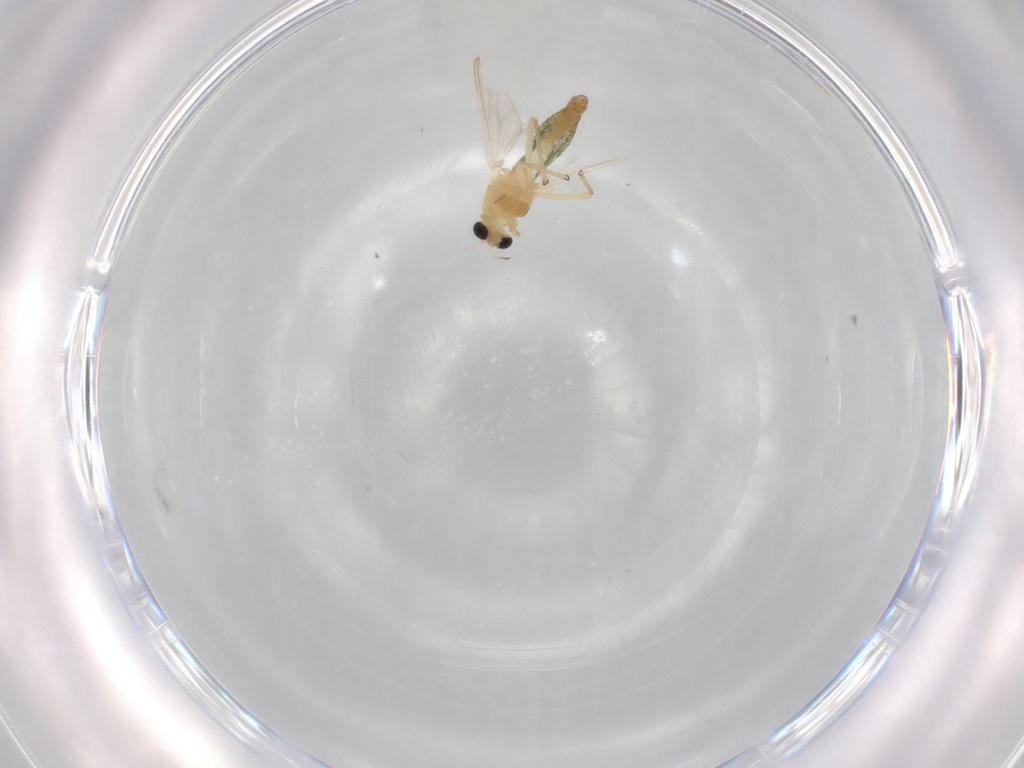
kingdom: Animalia
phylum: Arthropoda
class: Insecta
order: Diptera
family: Chironomidae
